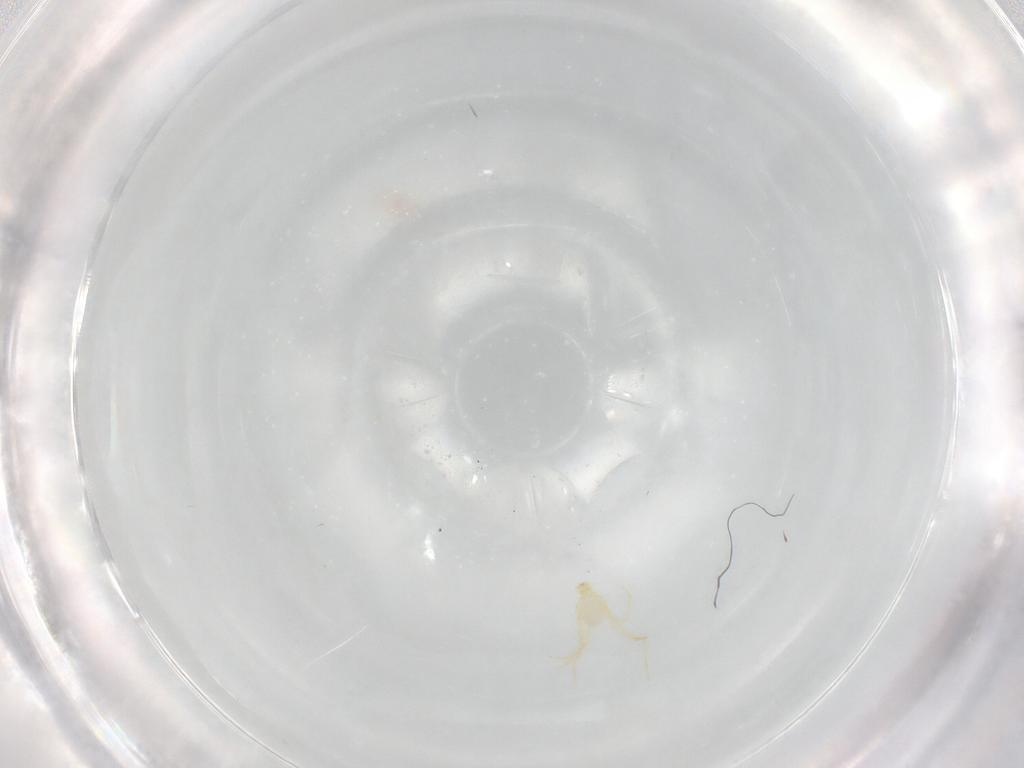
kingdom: Animalia
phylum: Arthropoda
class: Arachnida
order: Trombidiformes
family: Erythraeidae
